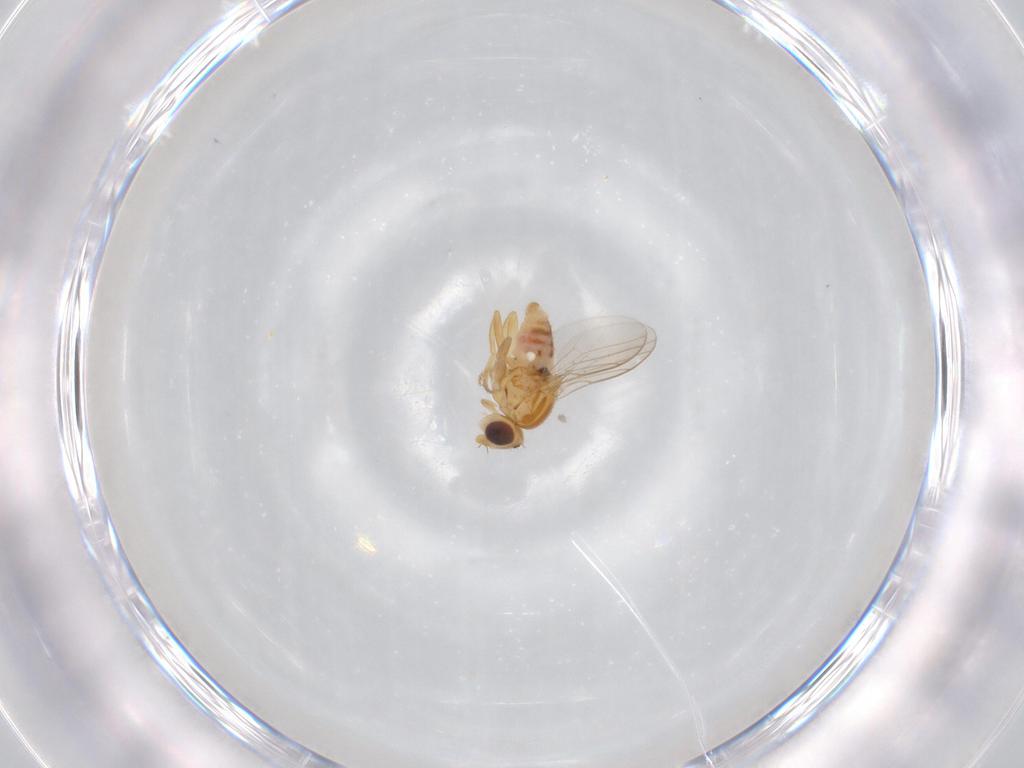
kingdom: Animalia
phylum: Arthropoda
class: Insecta
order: Diptera
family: Chloropidae
